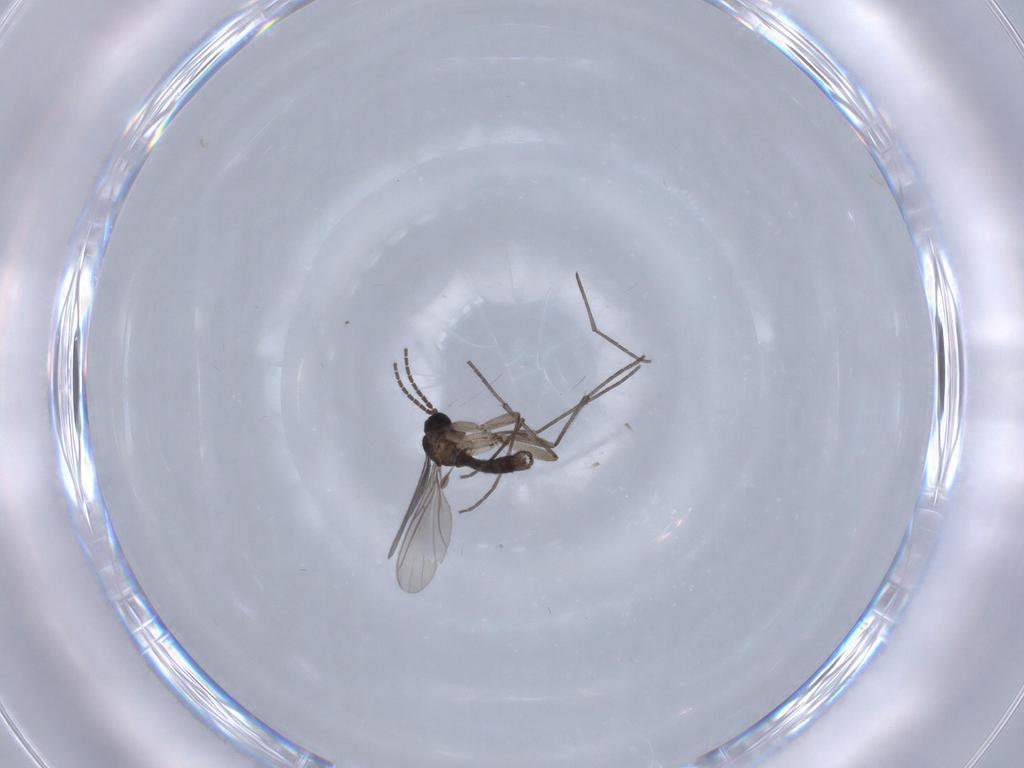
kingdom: Animalia
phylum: Arthropoda
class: Insecta
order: Diptera
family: Sciaridae
